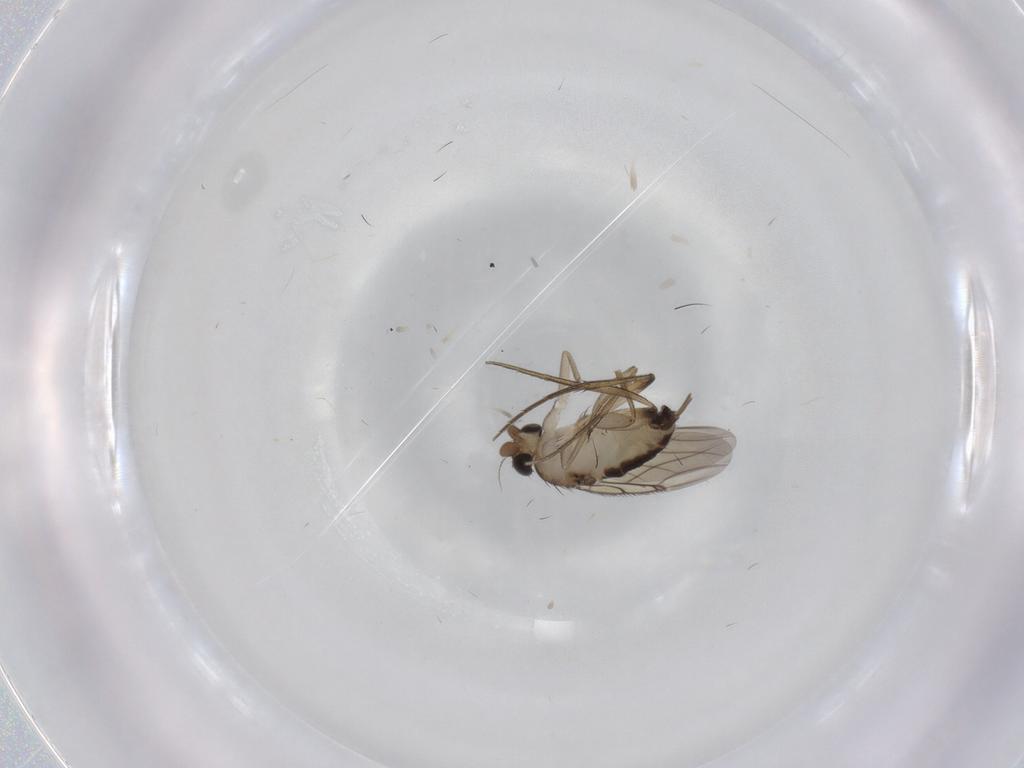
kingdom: Animalia
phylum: Arthropoda
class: Insecta
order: Diptera
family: Phoridae
